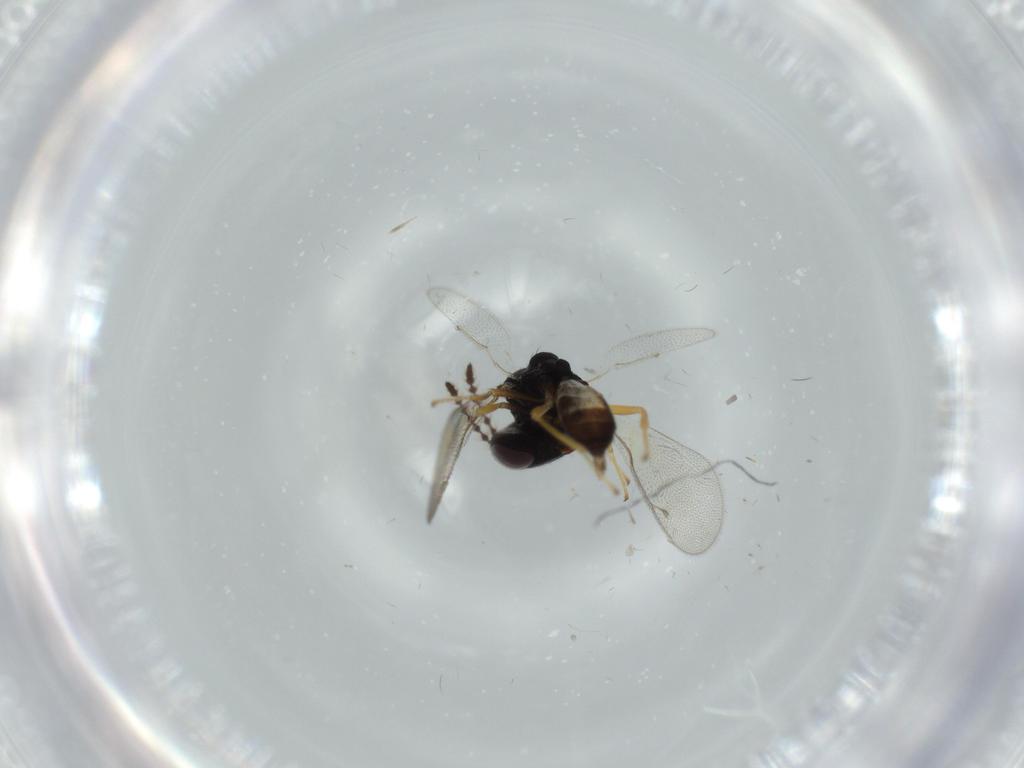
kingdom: Animalia
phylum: Arthropoda
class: Insecta
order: Hymenoptera
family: Pteromalidae
